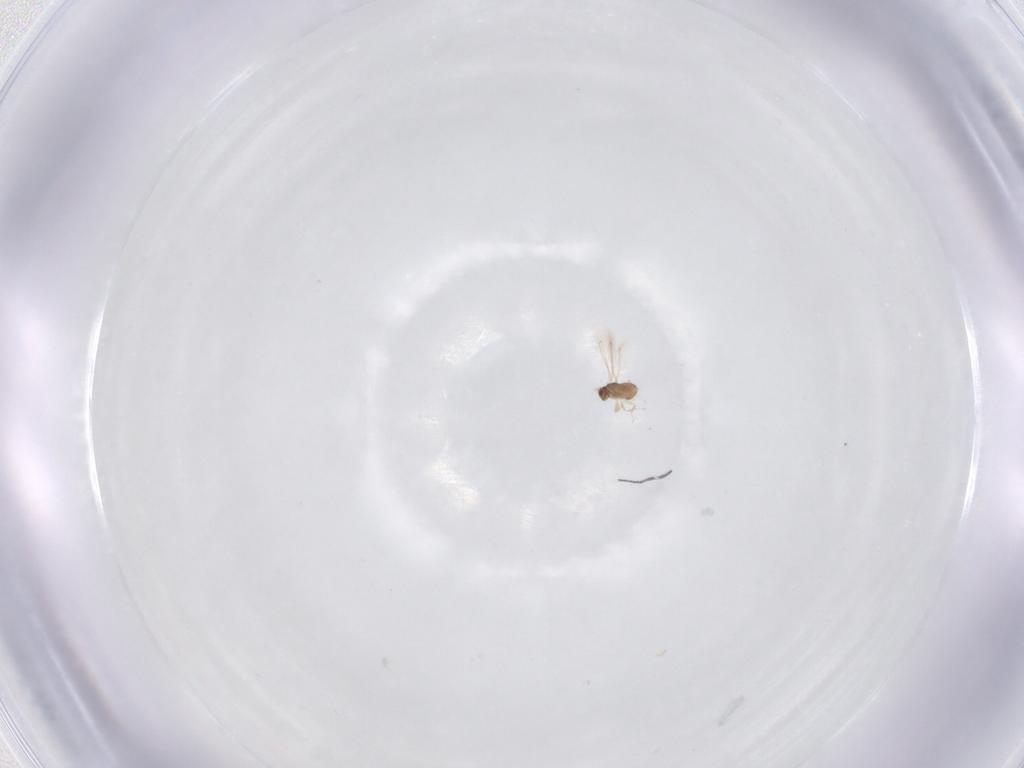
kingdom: Animalia
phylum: Arthropoda
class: Insecta
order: Hymenoptera
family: Platygastridae
